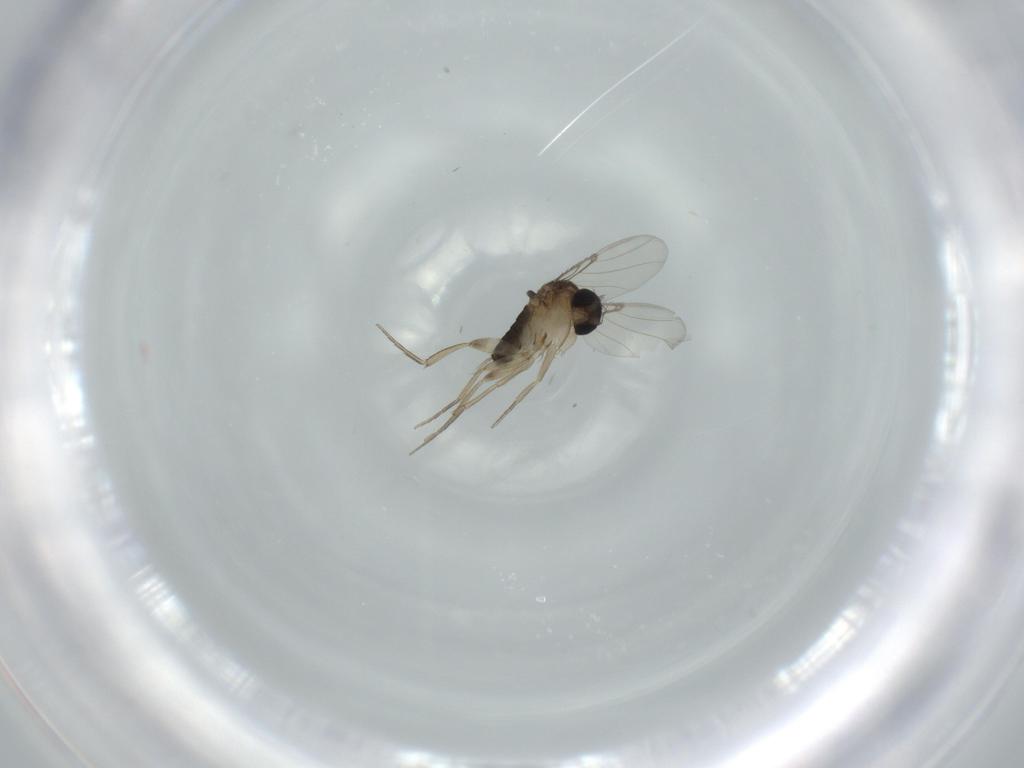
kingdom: Animalia
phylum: Arthropoda
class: Insecta
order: Diptera
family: Phoridae
